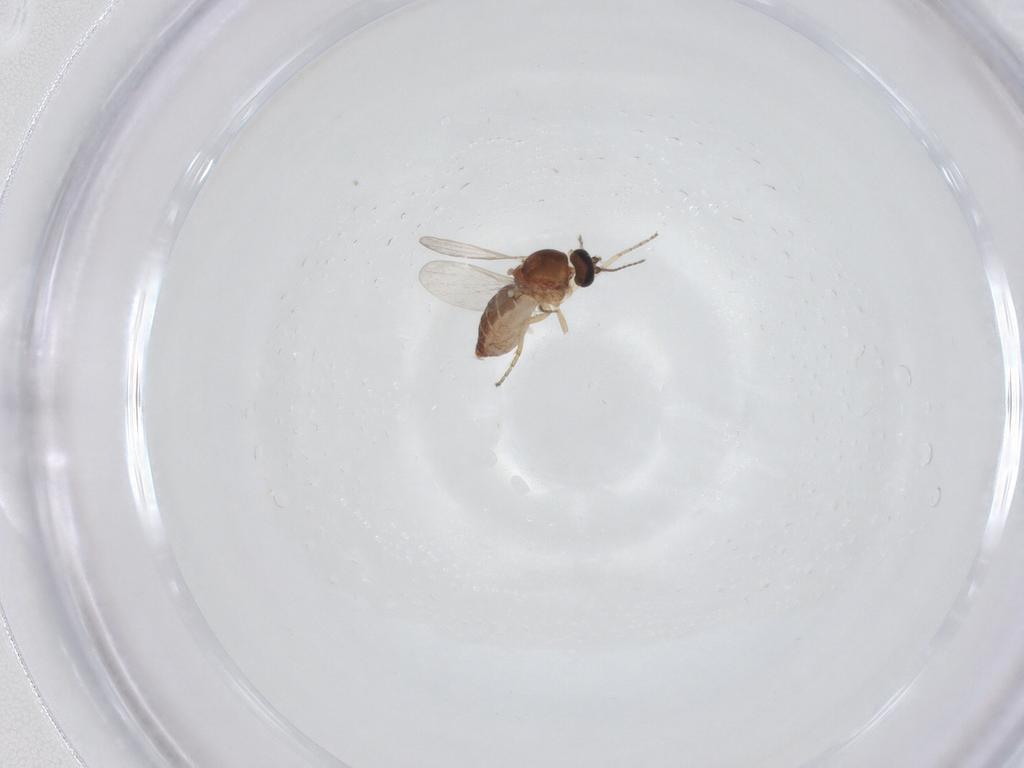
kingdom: Animalia
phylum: Arthropoda
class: Insecta
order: Diptera
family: Ceratopogonidae
